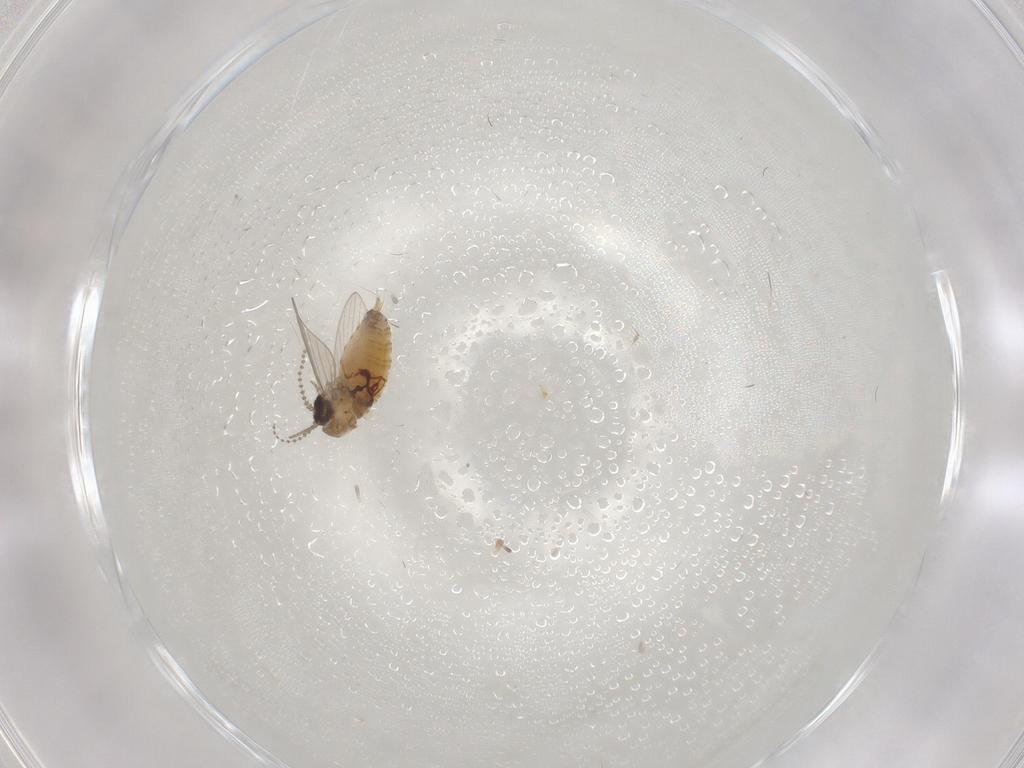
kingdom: Animalia
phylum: Arthropoda
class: Insecta
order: Diptera
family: Psychodidae
